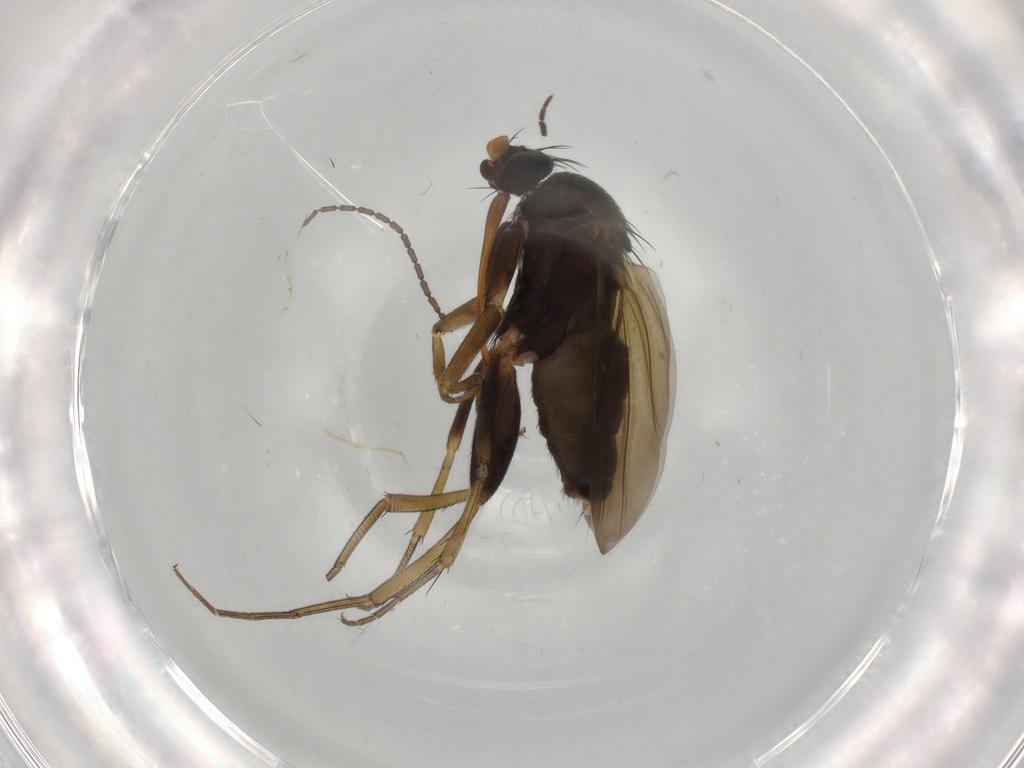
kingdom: Animalia
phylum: Arthropoda
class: Insecta
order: Diptera
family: Phoridae
